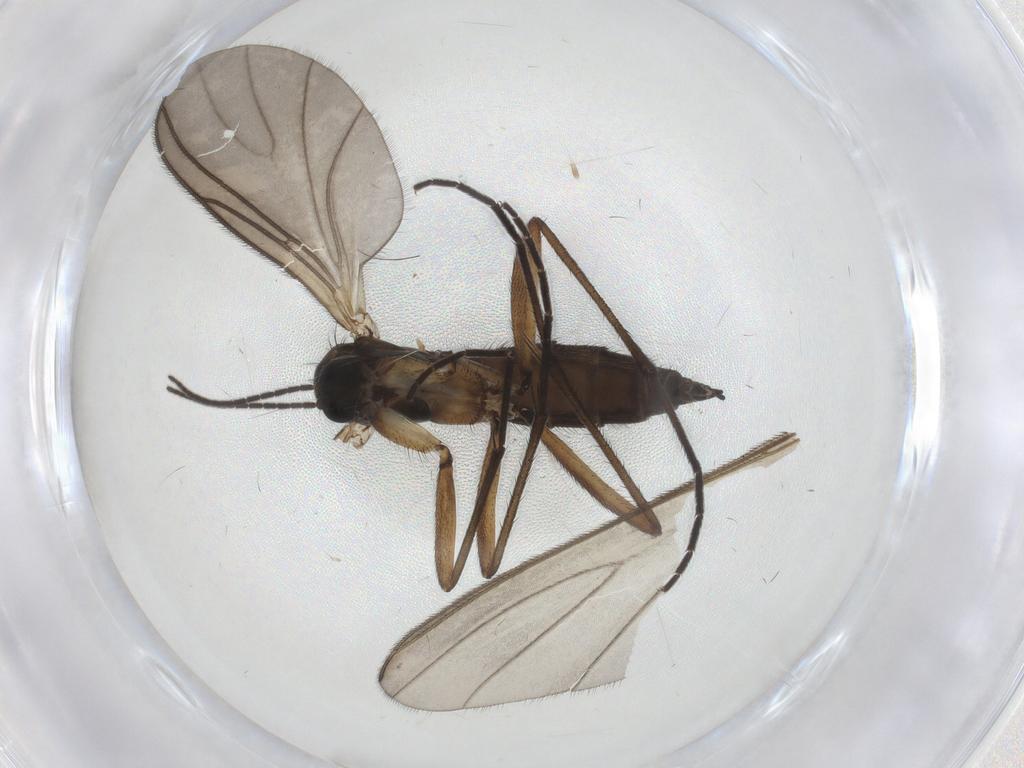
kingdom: Animalia
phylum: Arthropoda
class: Insecta
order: Diptera
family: Sciaridae
